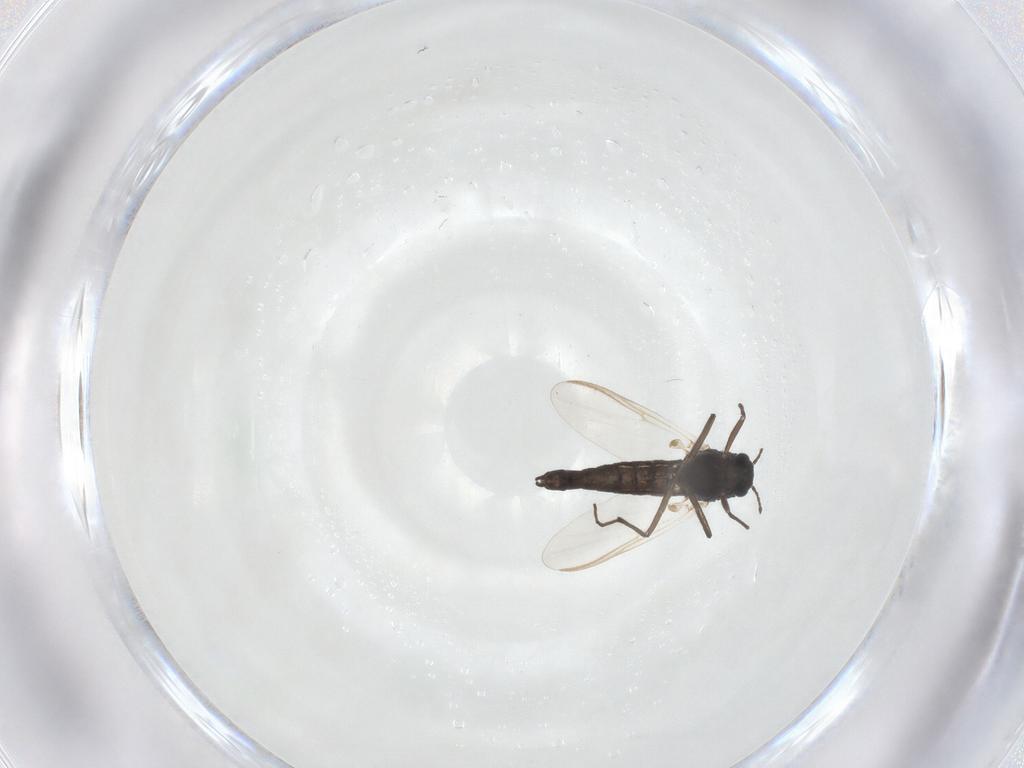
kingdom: Animalia
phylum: Arthropoda
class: Insecta
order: Diptera
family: Chironomidae
